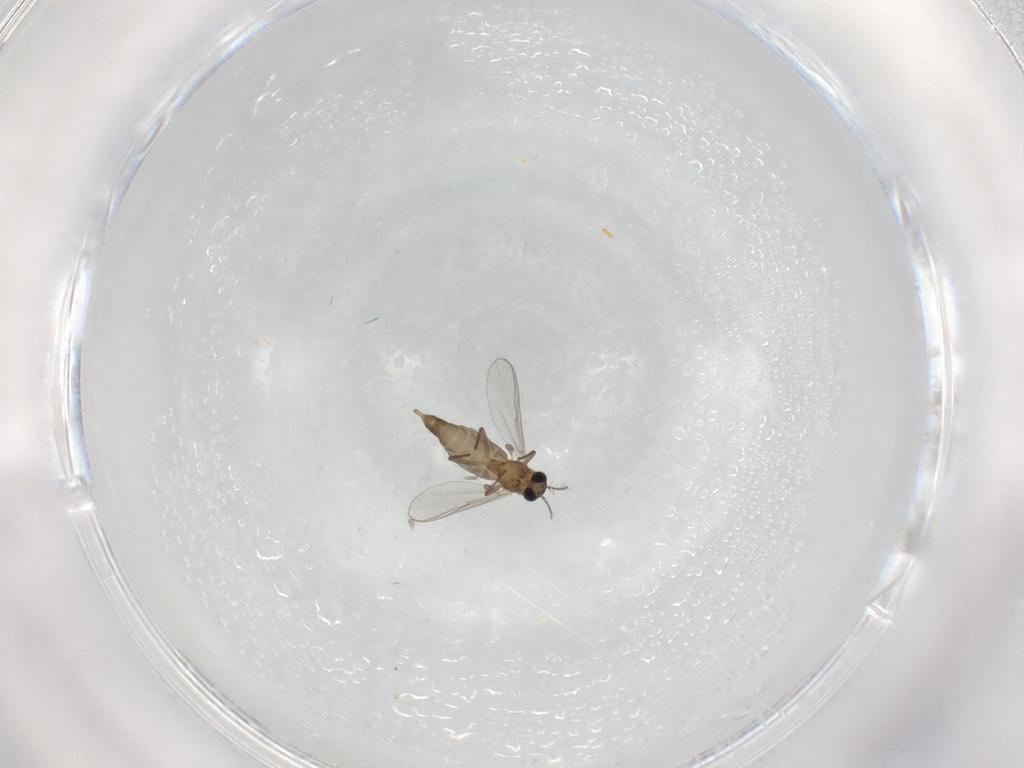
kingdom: Animalia
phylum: Arthropoda
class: Insecta
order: Diptera
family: Chironomidae
